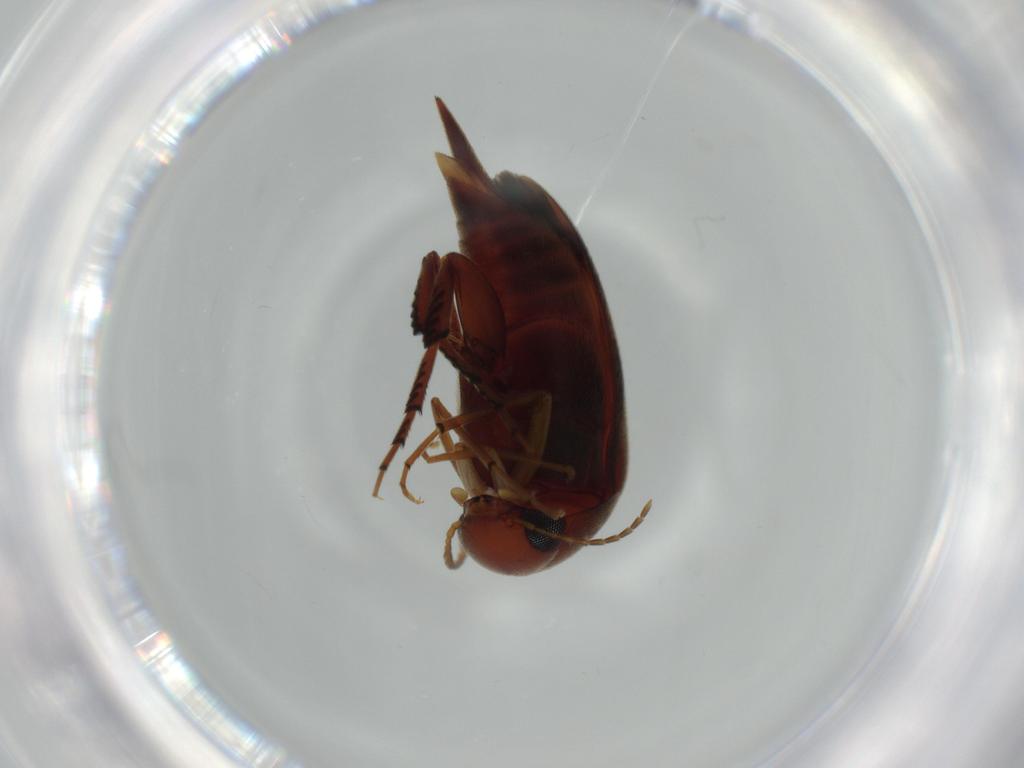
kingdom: Animalia
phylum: Arthropoda
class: Insecta
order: Coleoptera
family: Mordellidae
